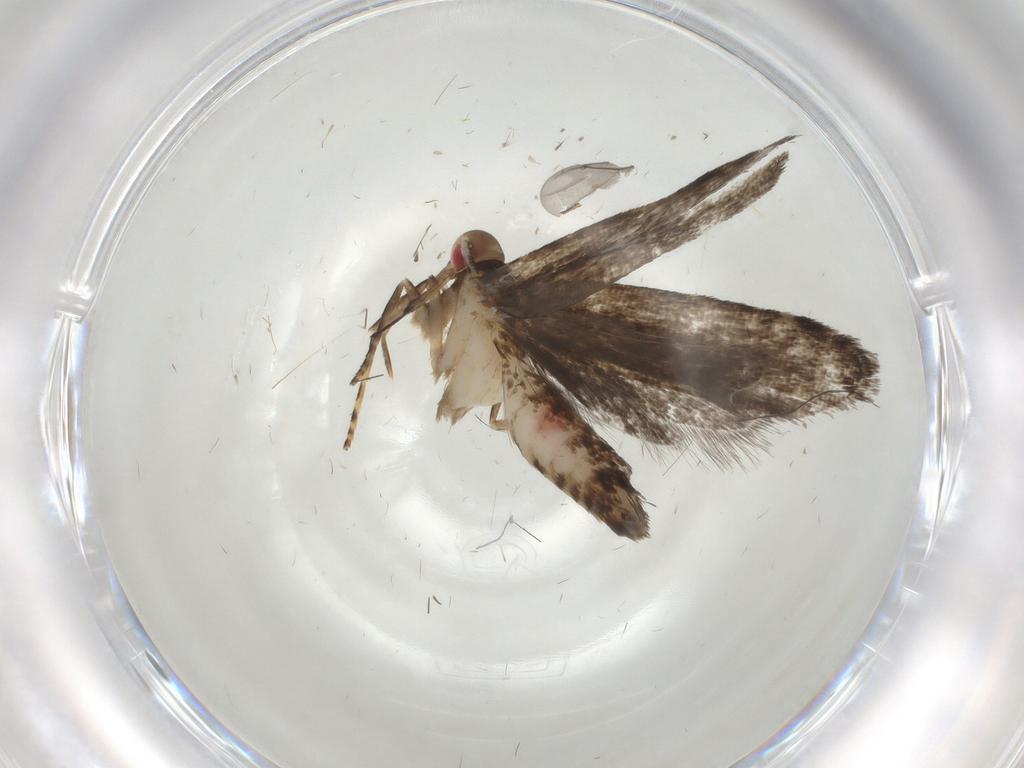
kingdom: Animalia
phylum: Arthropoda
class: Insecta
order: Lepidoptera
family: Gelechiidae
